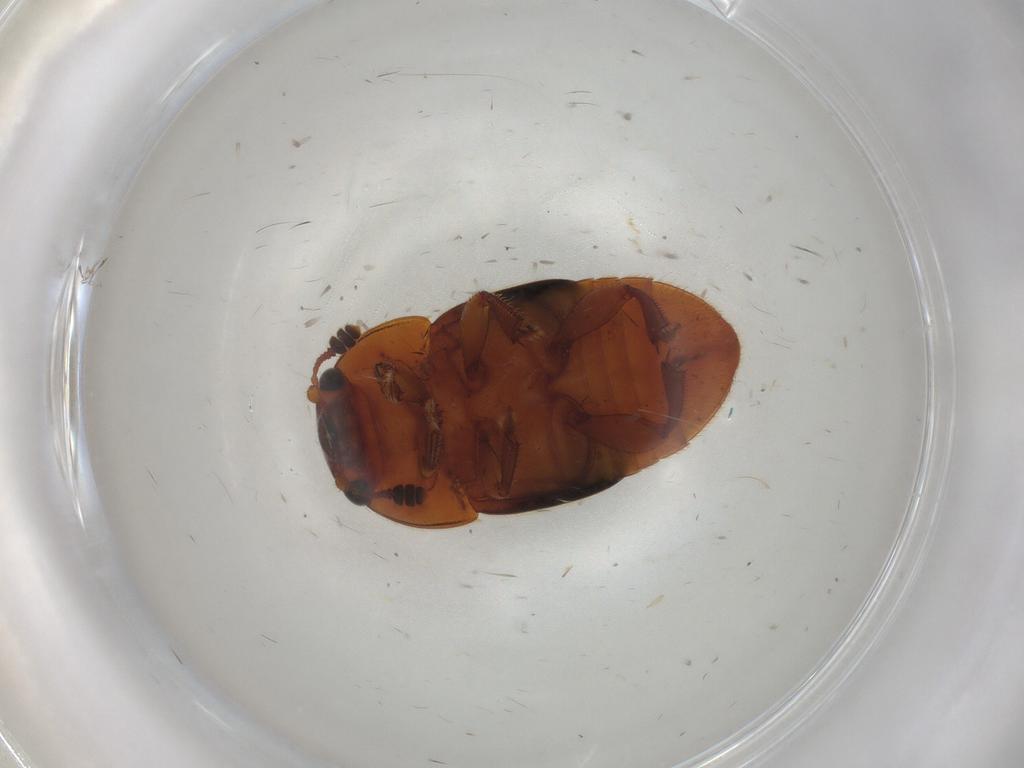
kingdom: Animalia
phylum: Arthropoda
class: Insecta
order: Coleoptera
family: Nitidulidae
